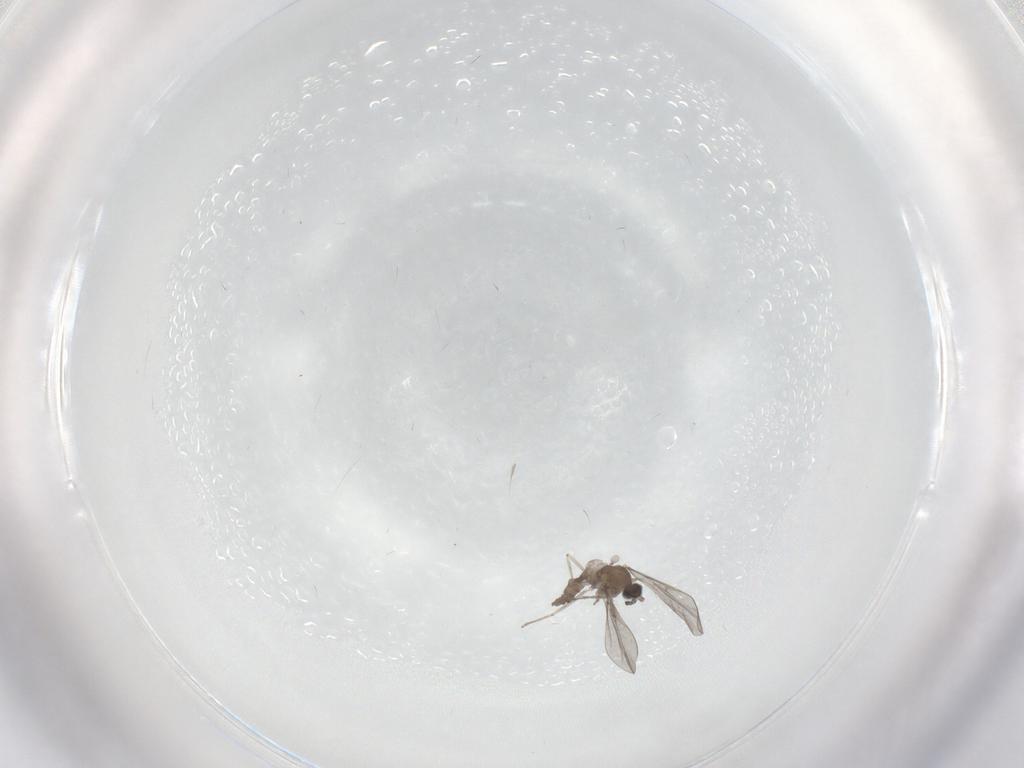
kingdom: Animalia
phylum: Arthropoda
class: Insecta
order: Diptera
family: Cecidomyiidae
